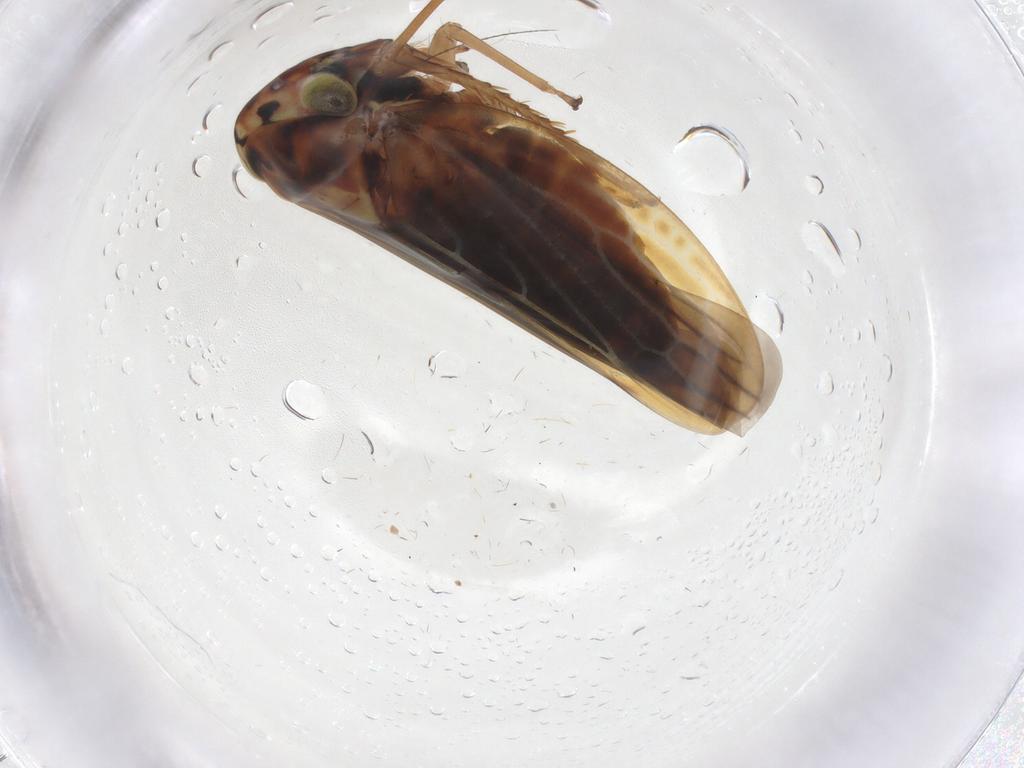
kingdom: Animalia
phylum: Arthropoda
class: Insecta
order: Hemiptera
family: Cicadellidae
